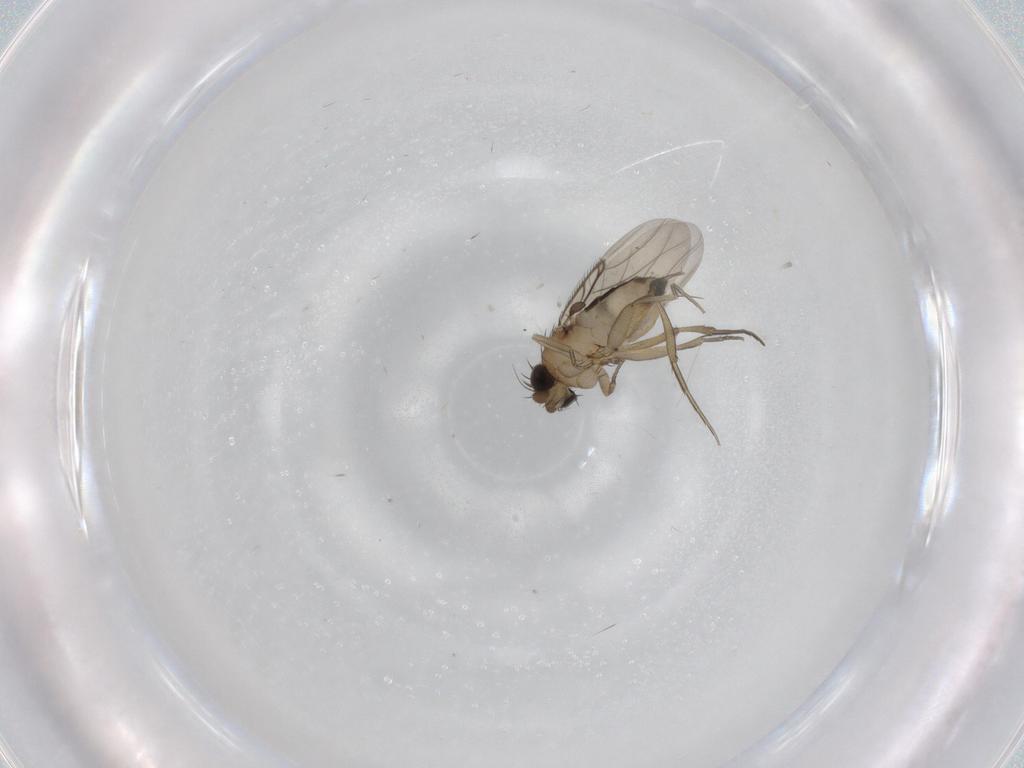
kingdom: Animalia
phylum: Arthropoda
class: Insecta
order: Diptera
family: Phoridae
